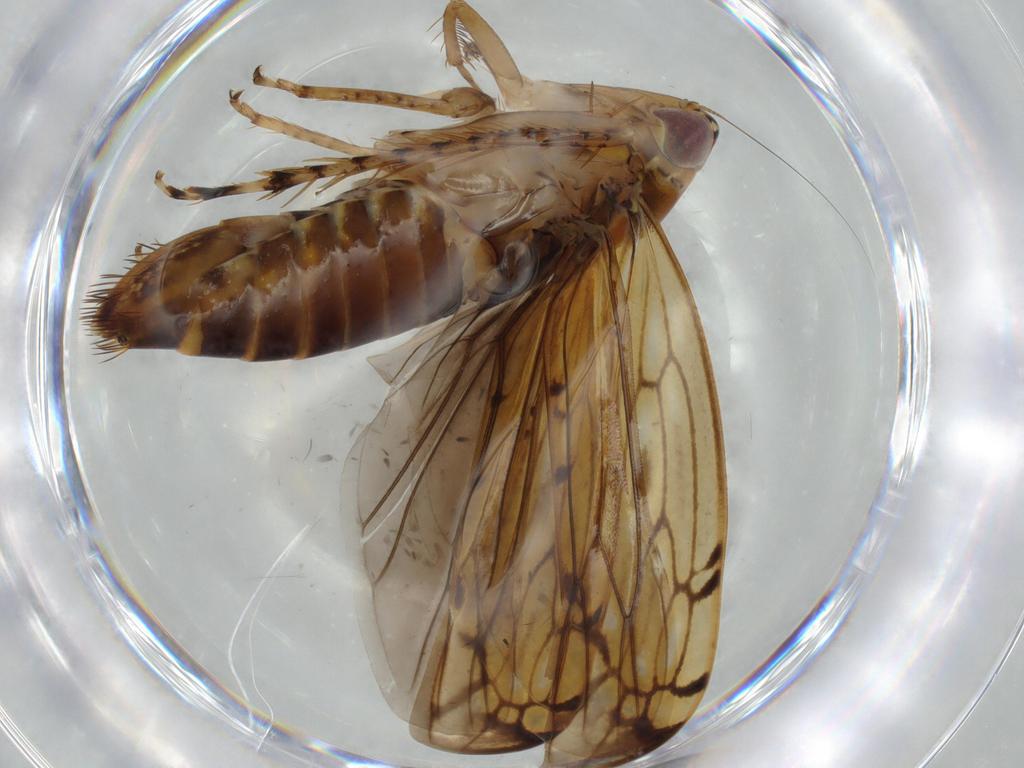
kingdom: Animalia
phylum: Arthropoda
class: Insecta
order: Hemiptera
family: Cicadellidae
